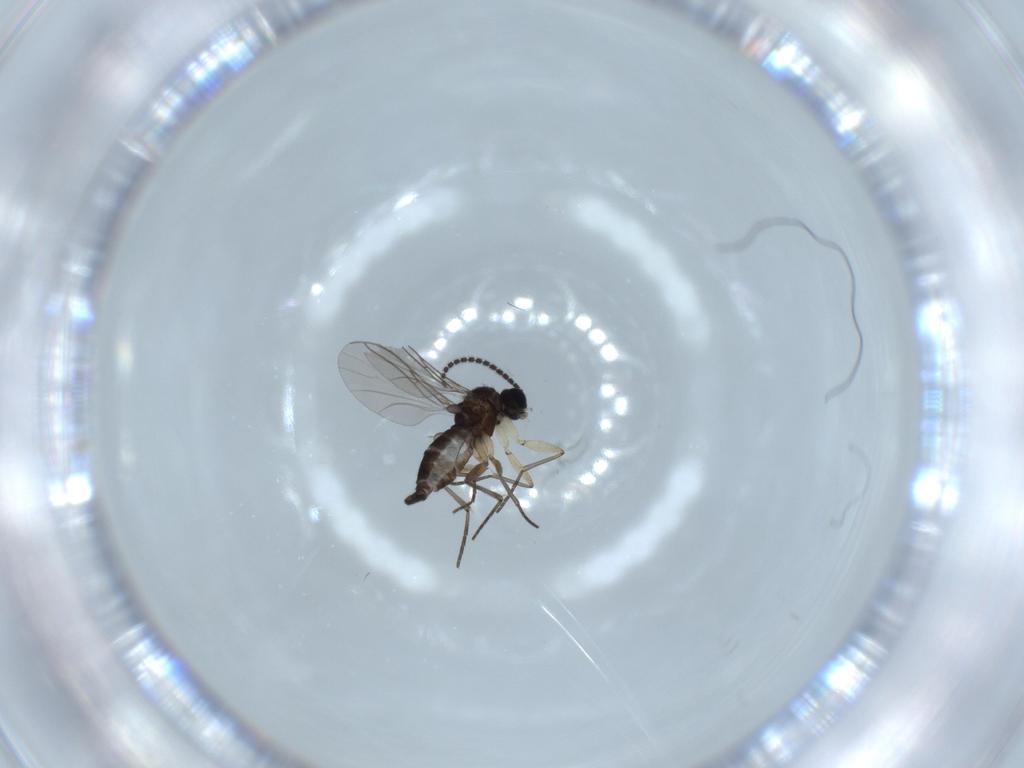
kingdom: Animalia
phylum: Arthropoda
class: Insecta
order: Diptera
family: Sciaridae
